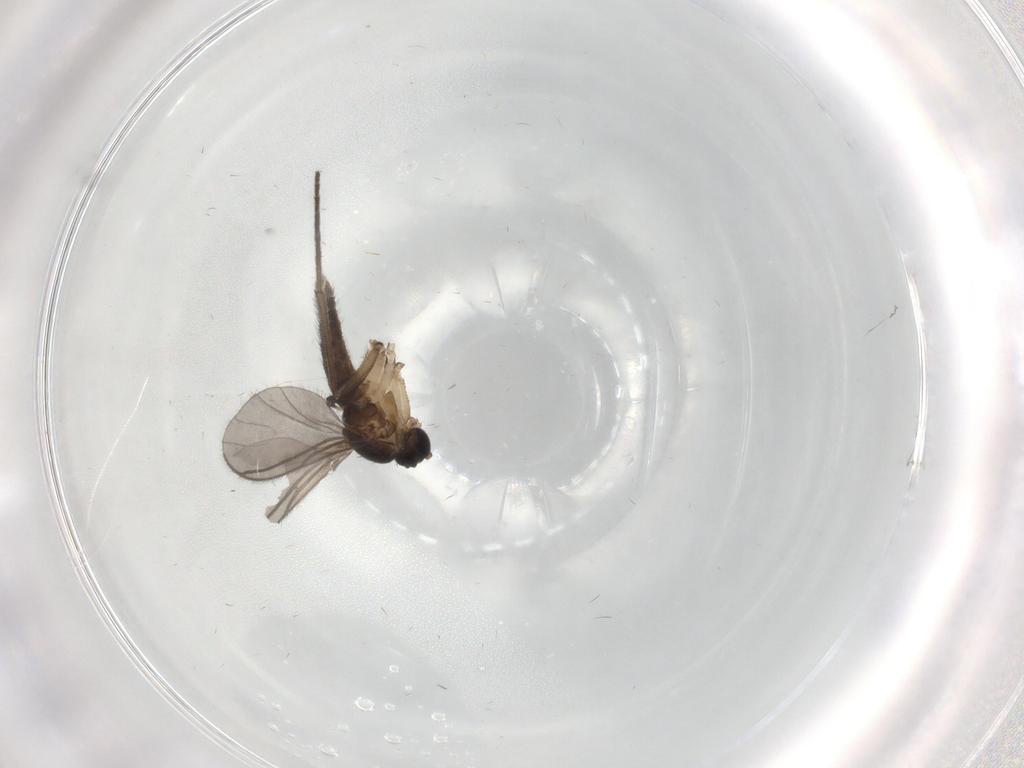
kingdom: Animalia
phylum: Arthropoda
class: Insecta
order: Diptera
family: Sciaridae
